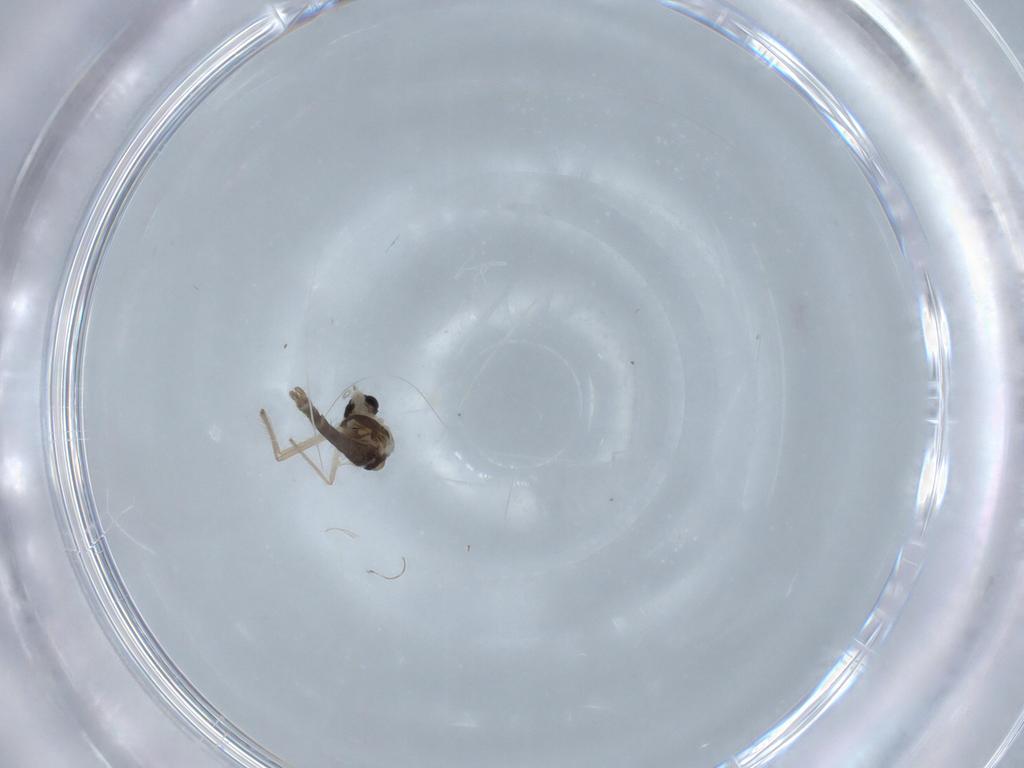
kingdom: Animalia
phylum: Arthropoda
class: Insecta
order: Diptera
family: Chironomidae
